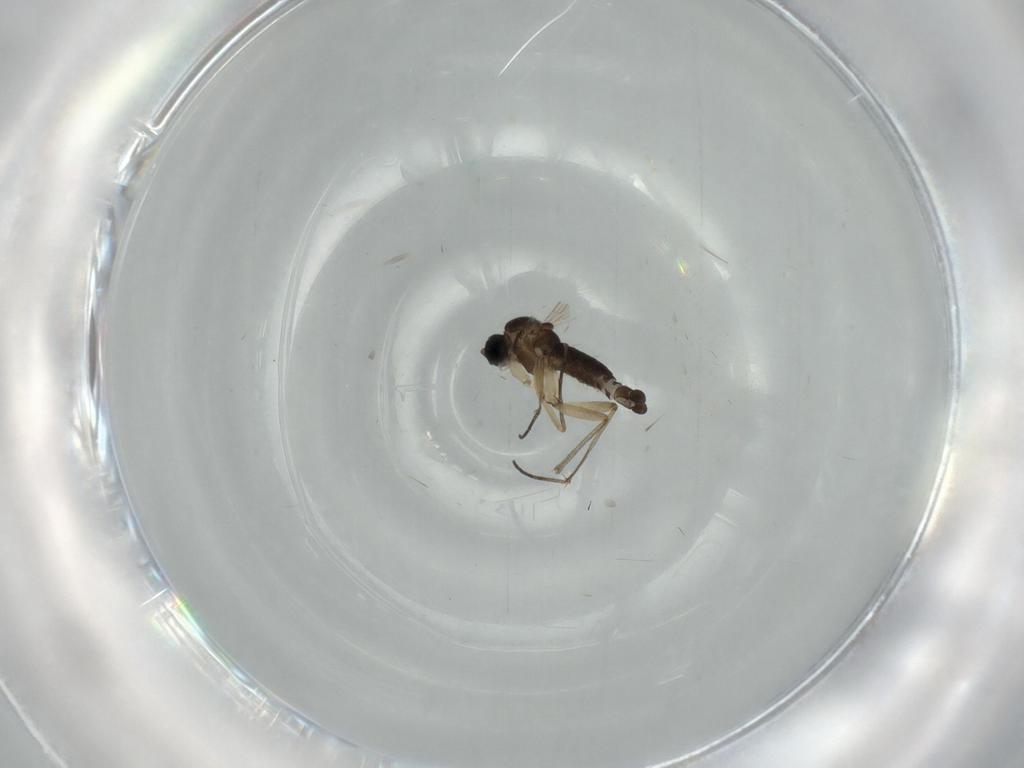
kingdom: Animalia
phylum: Arthropoda
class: Insecta
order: Diptera
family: Sciaridae
